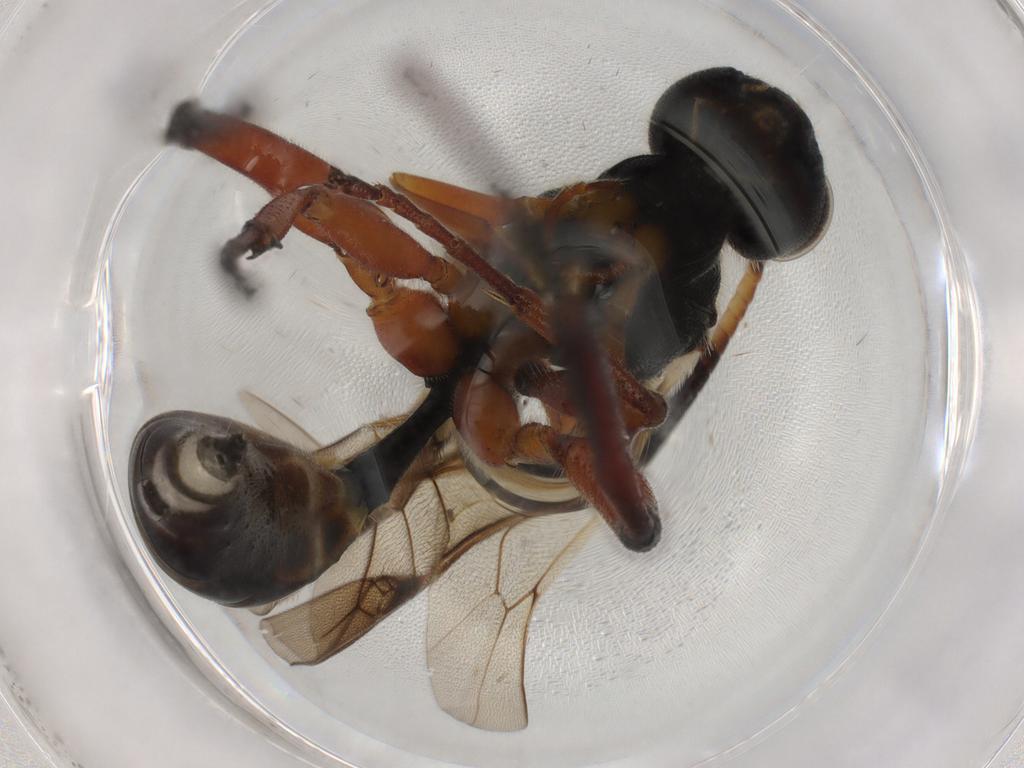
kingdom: Animalia
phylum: Arthropoda
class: Insecta
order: Hymenoptera
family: Ichneumonidae
